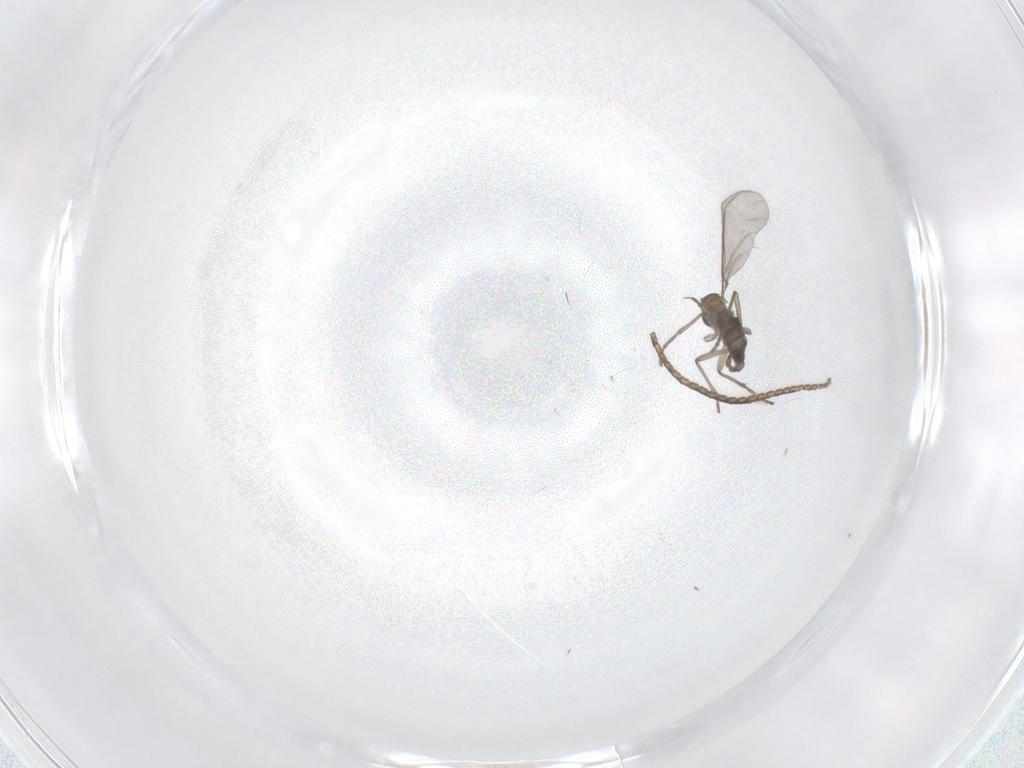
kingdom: Animalia
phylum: Arthropoda
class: Insecta
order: Diptera
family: Sciaridae
